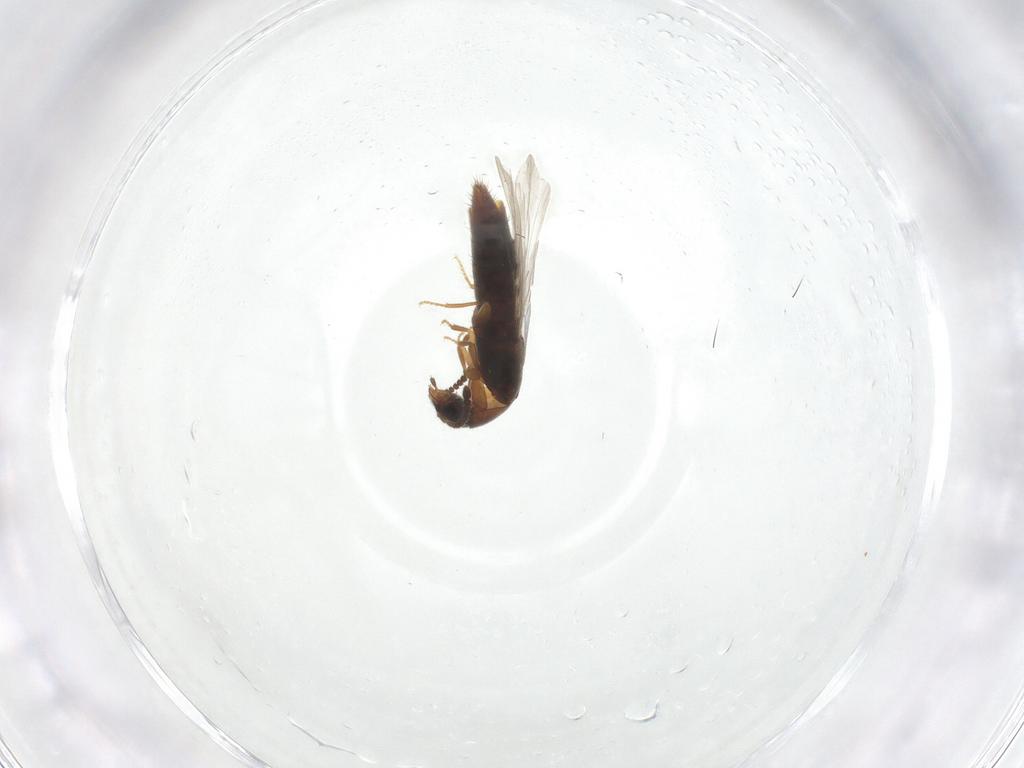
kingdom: Animalia
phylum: Arthropoda
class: Insecta
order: Coleoptera
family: Staphylinidae
